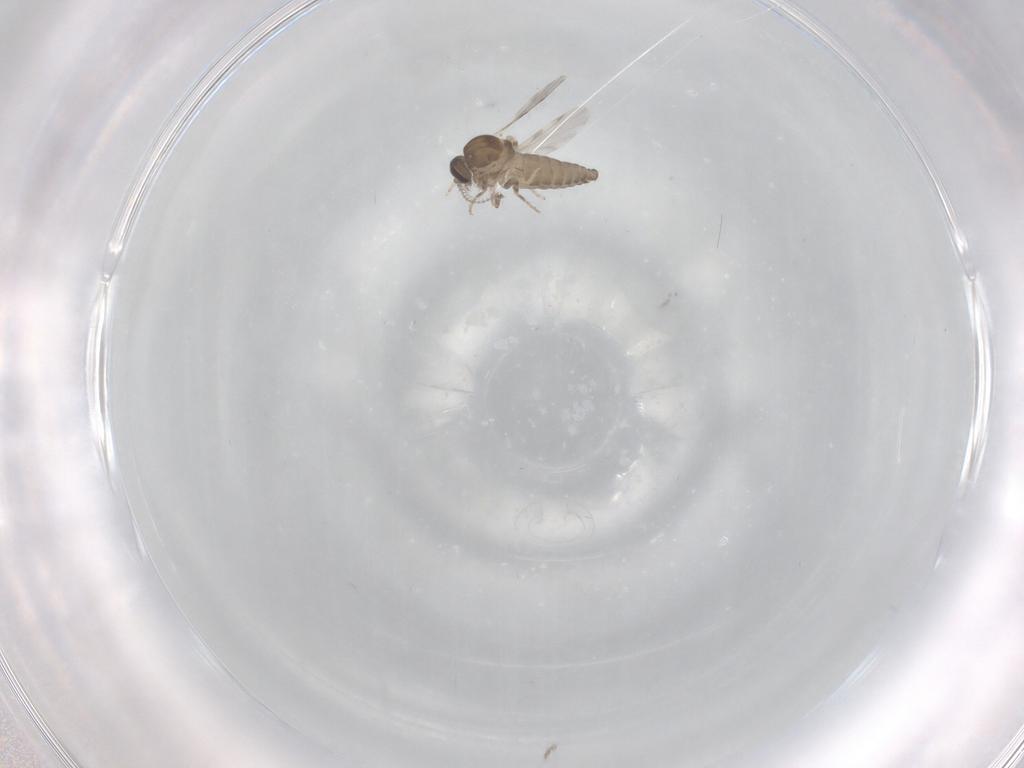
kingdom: Animalia
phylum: Arthropoda
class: Insecta
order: Diptera
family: Ceratopogonidae
